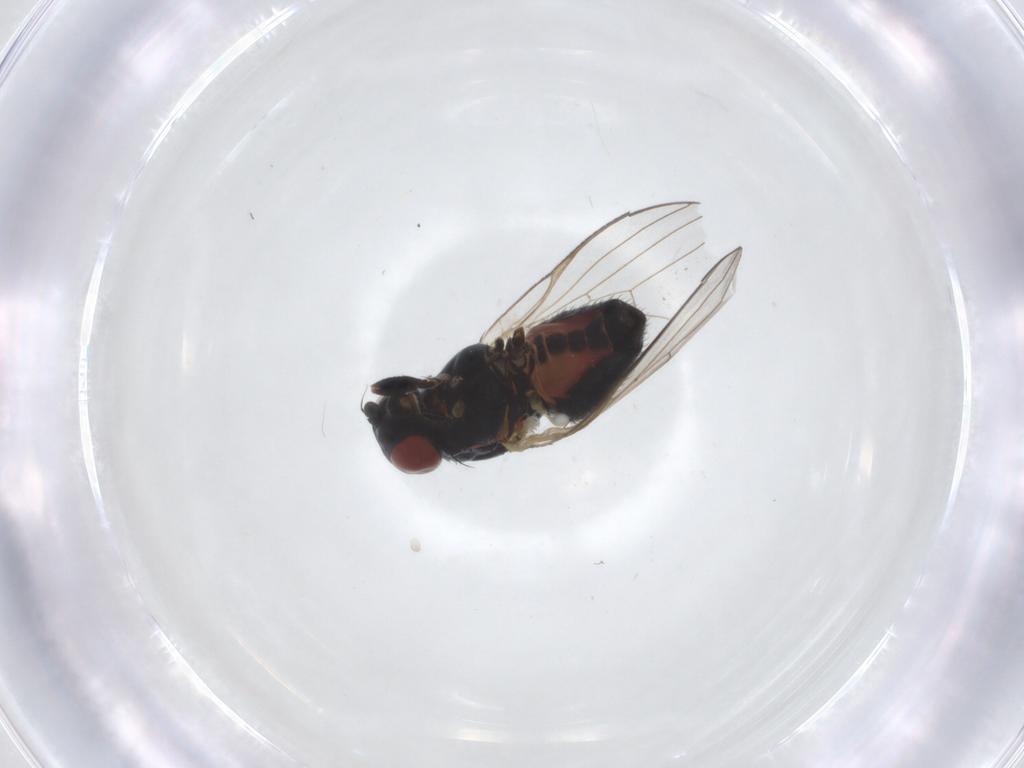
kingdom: Animalia
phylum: Arthropoda
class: Insecta
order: Diptera
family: Chamaemyiidae
